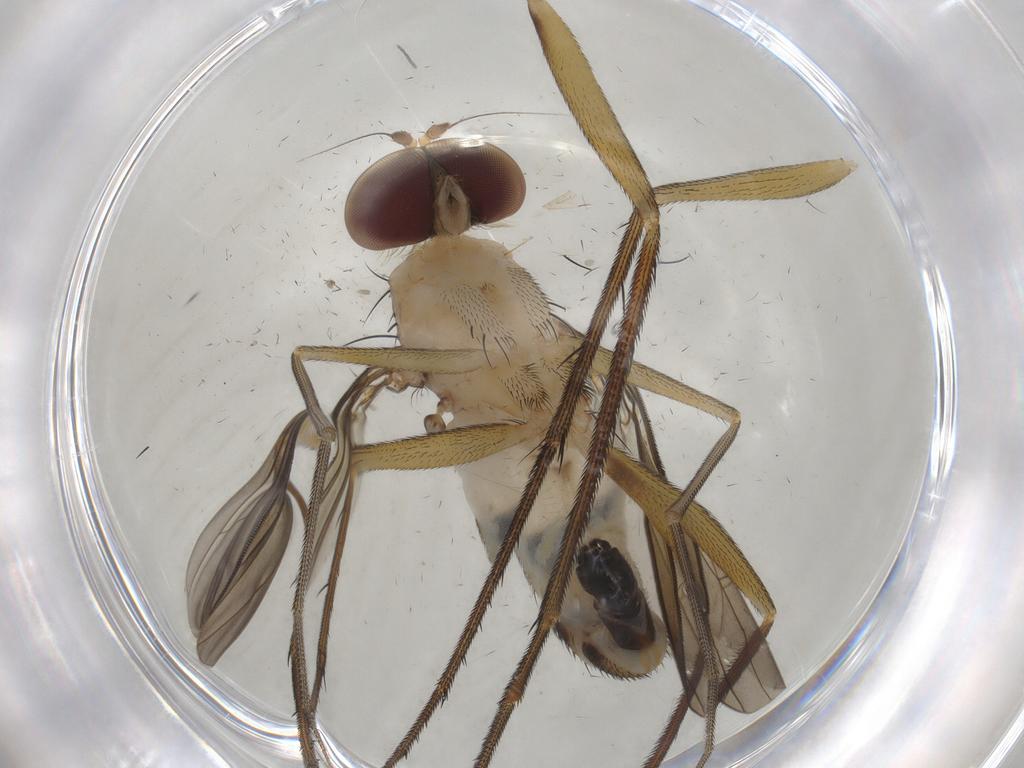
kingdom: Animalia
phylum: Arthropoda
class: Insecta
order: Diptera
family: Dolichopodidae
